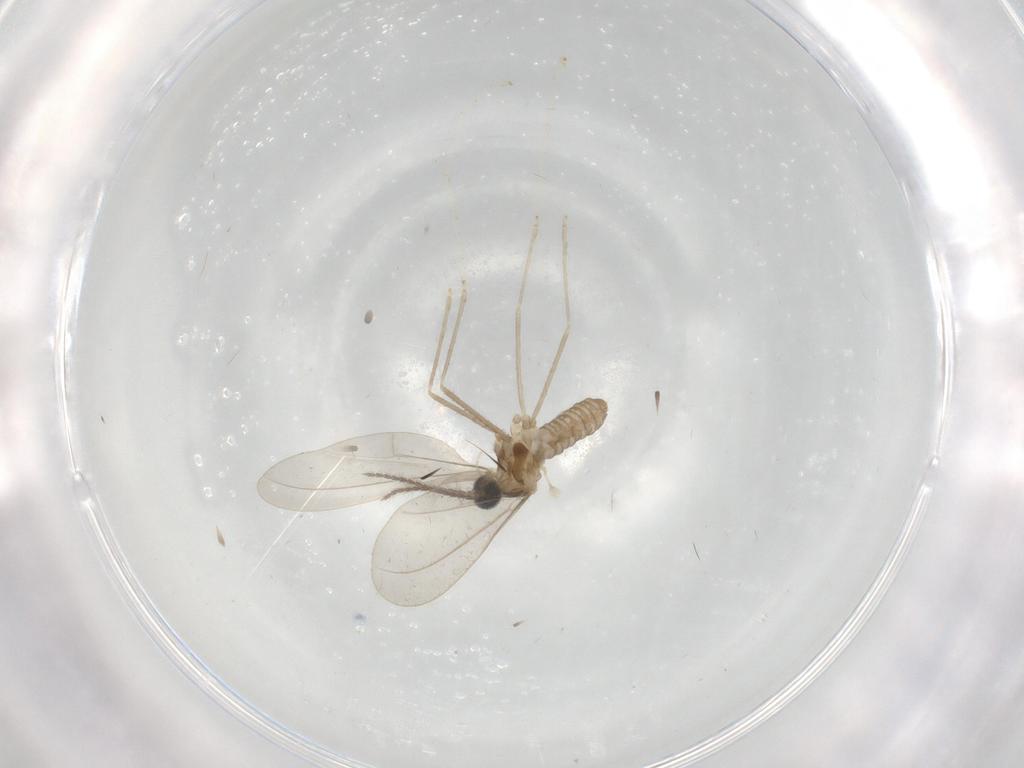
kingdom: Animalia
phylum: Arthropoda
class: Insecta
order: Diptera
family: Cecidomyiidae
